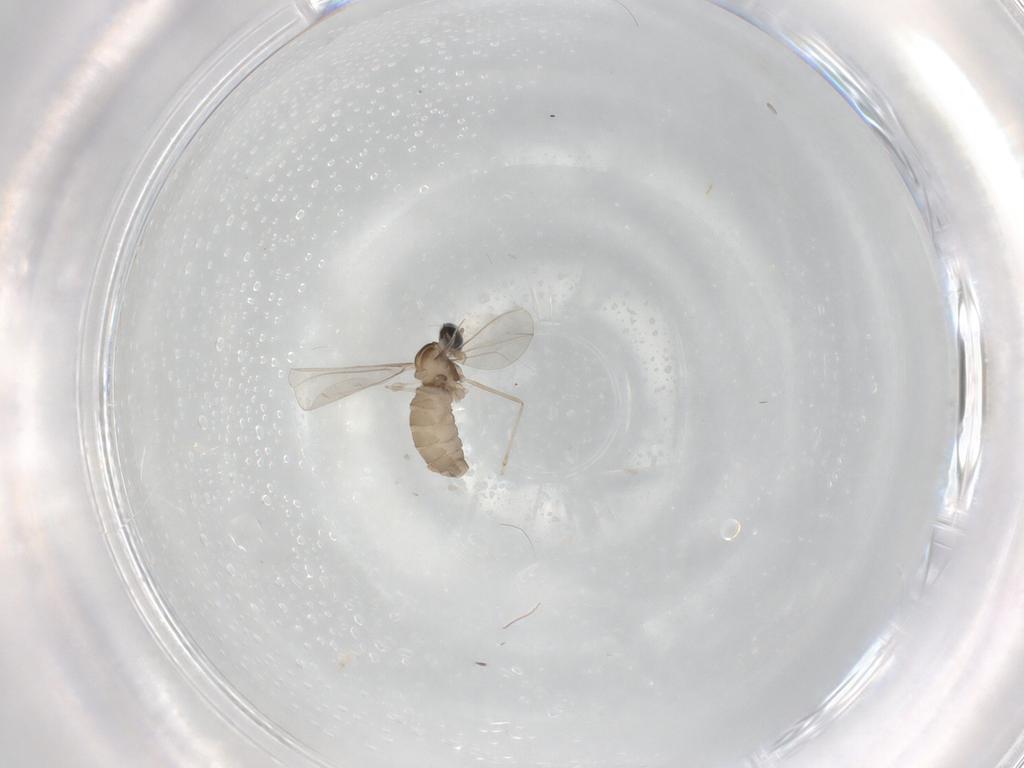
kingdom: Animalia
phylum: Arthropoda
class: Insecta
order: Diptera
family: Cecidomyiidae
